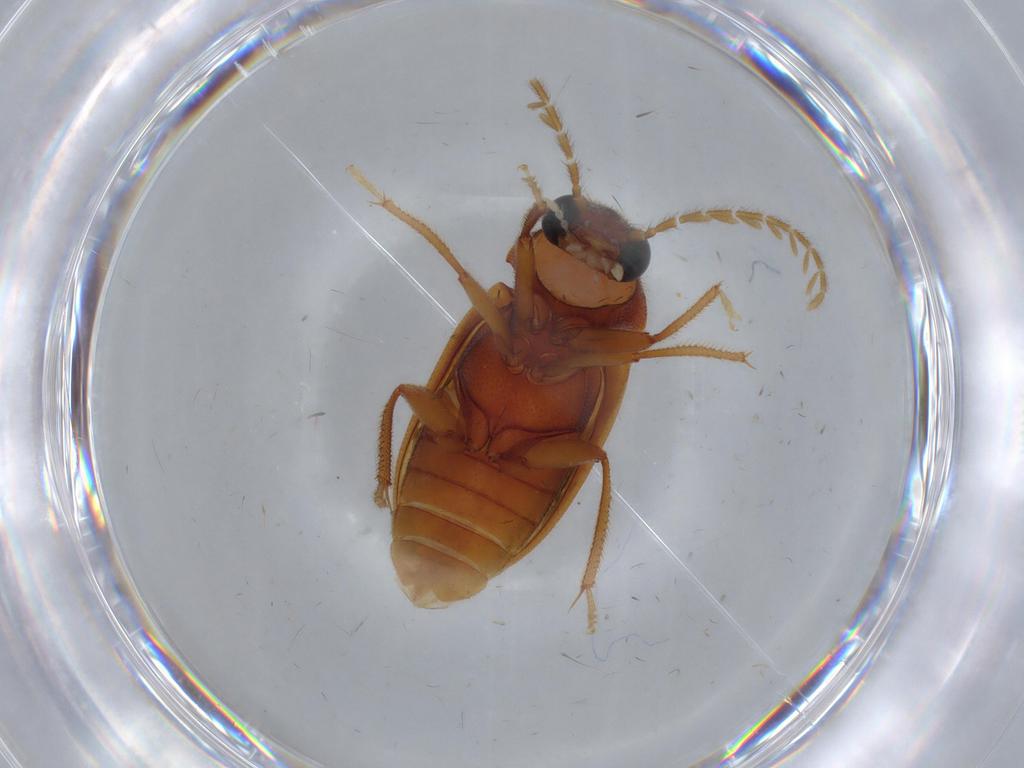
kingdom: Animalia
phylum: Arthropoda
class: Insecta
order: Coleoptera
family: Ptilodactylidae
